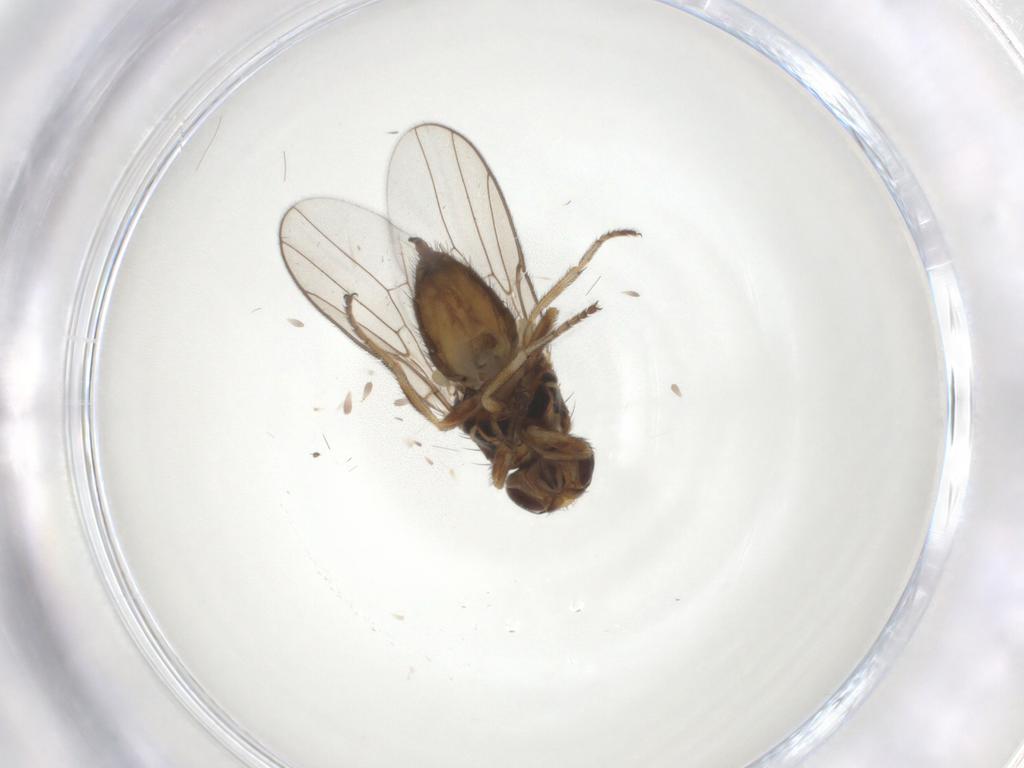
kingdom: Animalia
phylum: Arthropoda
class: Insecta
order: Diptera
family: Chloropidae
